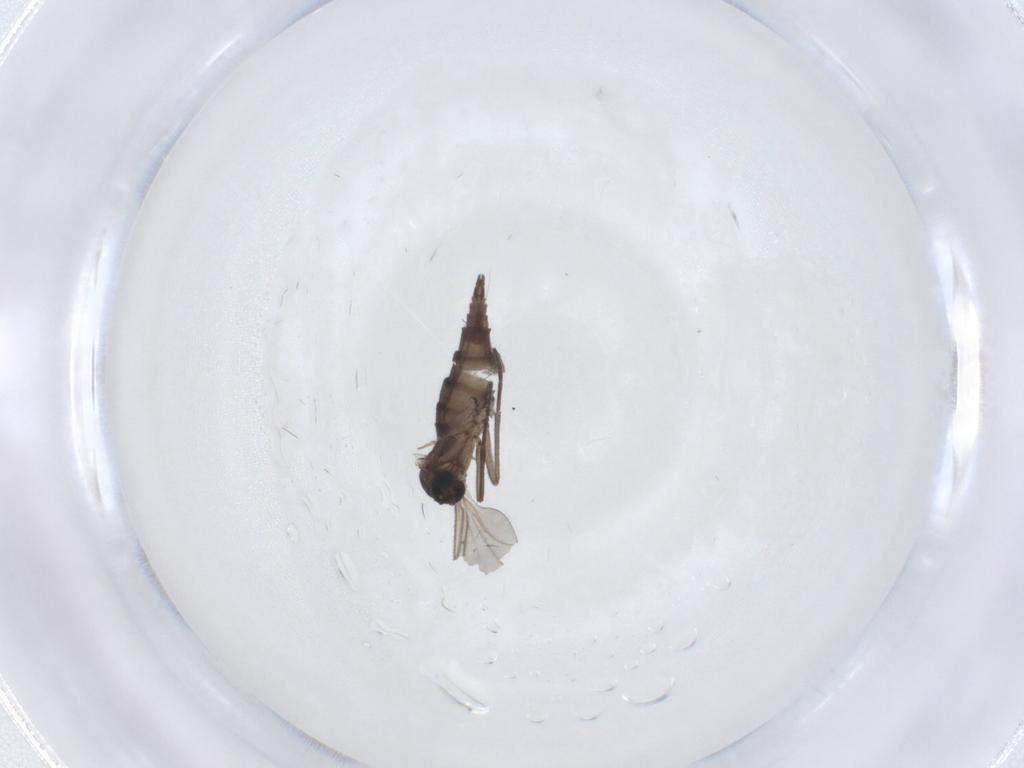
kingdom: Animalia
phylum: Arthropoda
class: Insecta
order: Diptera
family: Sciaridae
